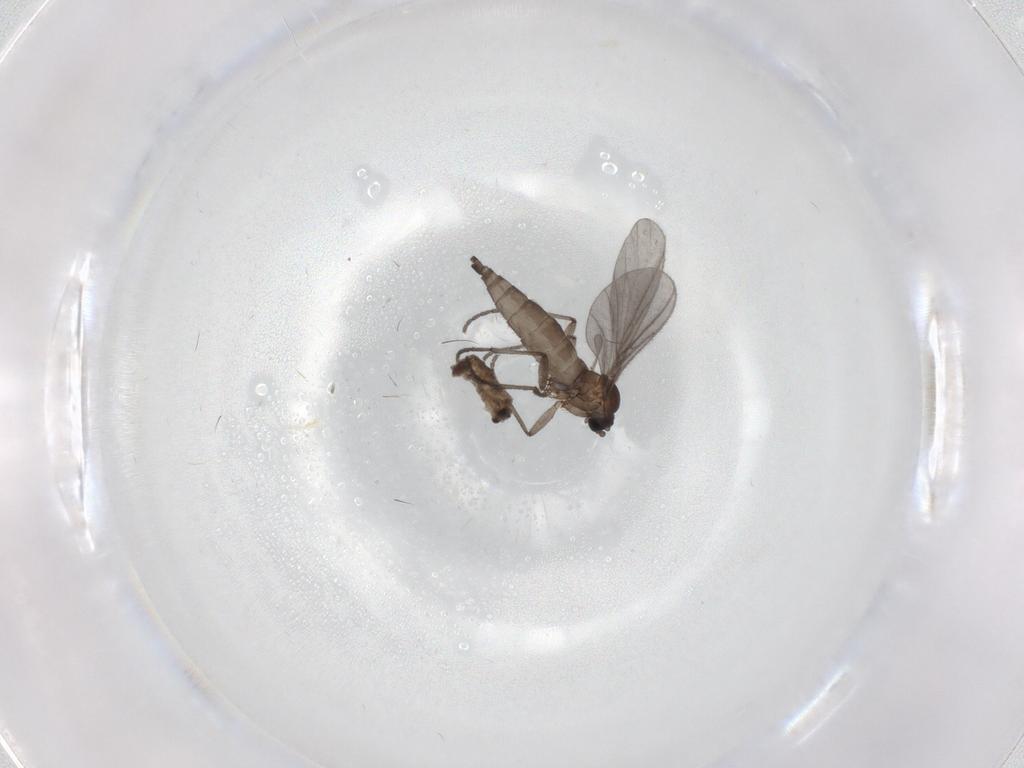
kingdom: Animalia
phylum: Arthropoda
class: Insecta
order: Diptera
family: Sciaridae
